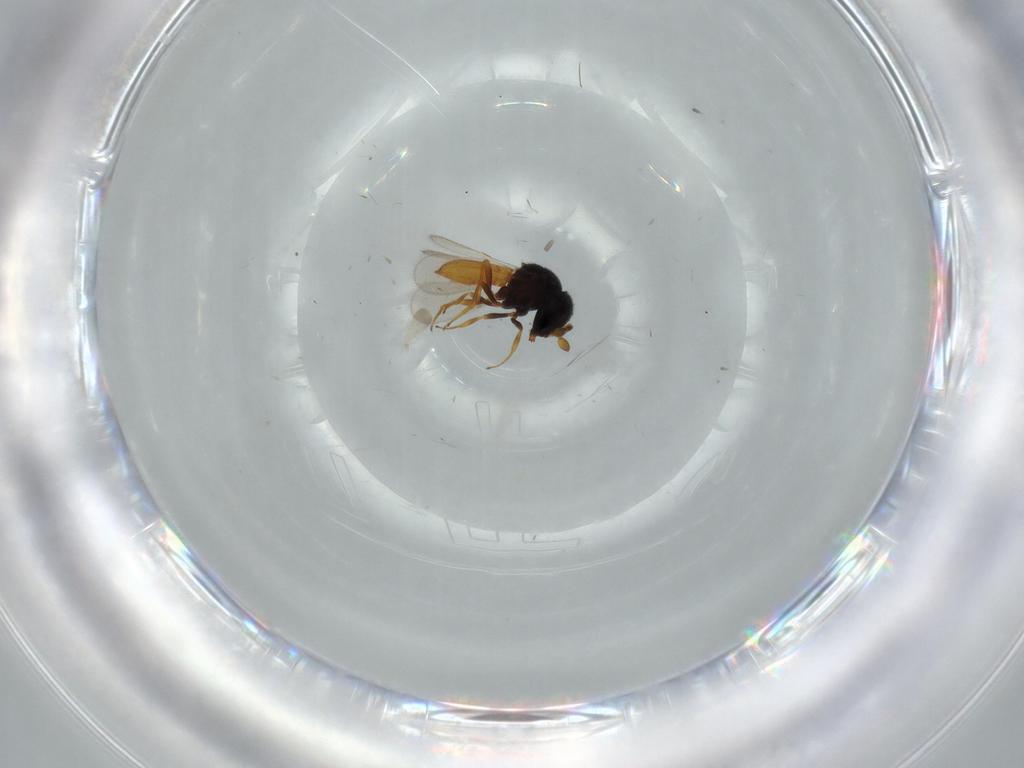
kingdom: Animalia
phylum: Arthropoda
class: Insecta
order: Hymenoptera
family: Scelionidae
